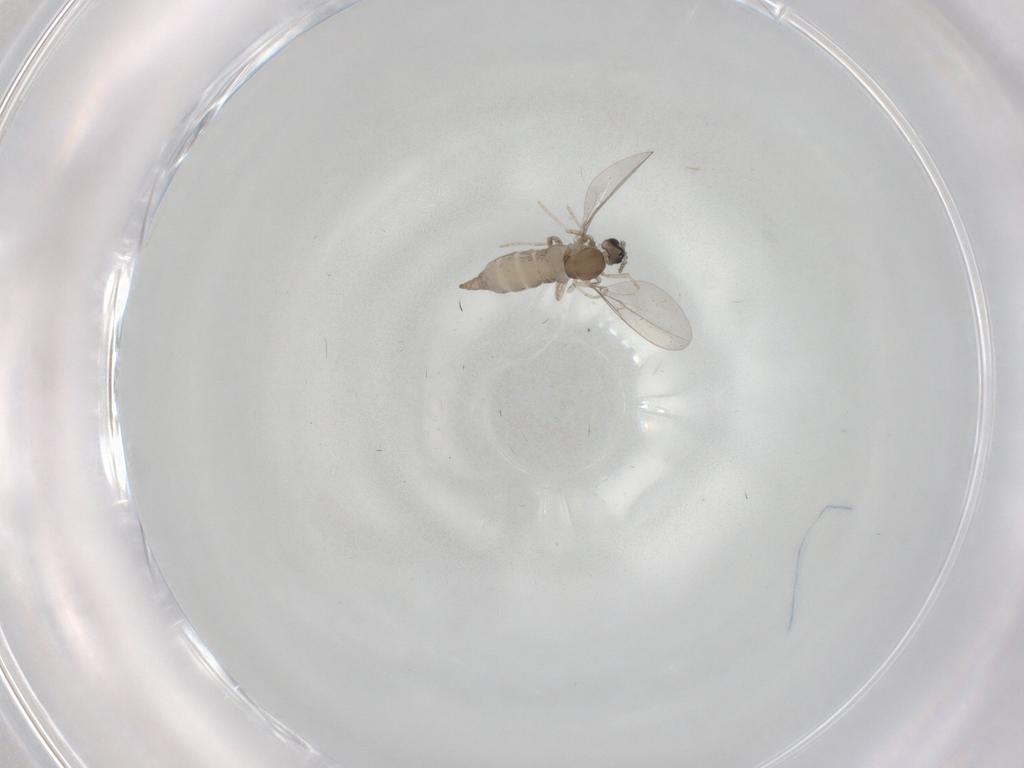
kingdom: Animalia
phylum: Arthropoda
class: Insecta
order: Diptera
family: Cecidomyiidae
